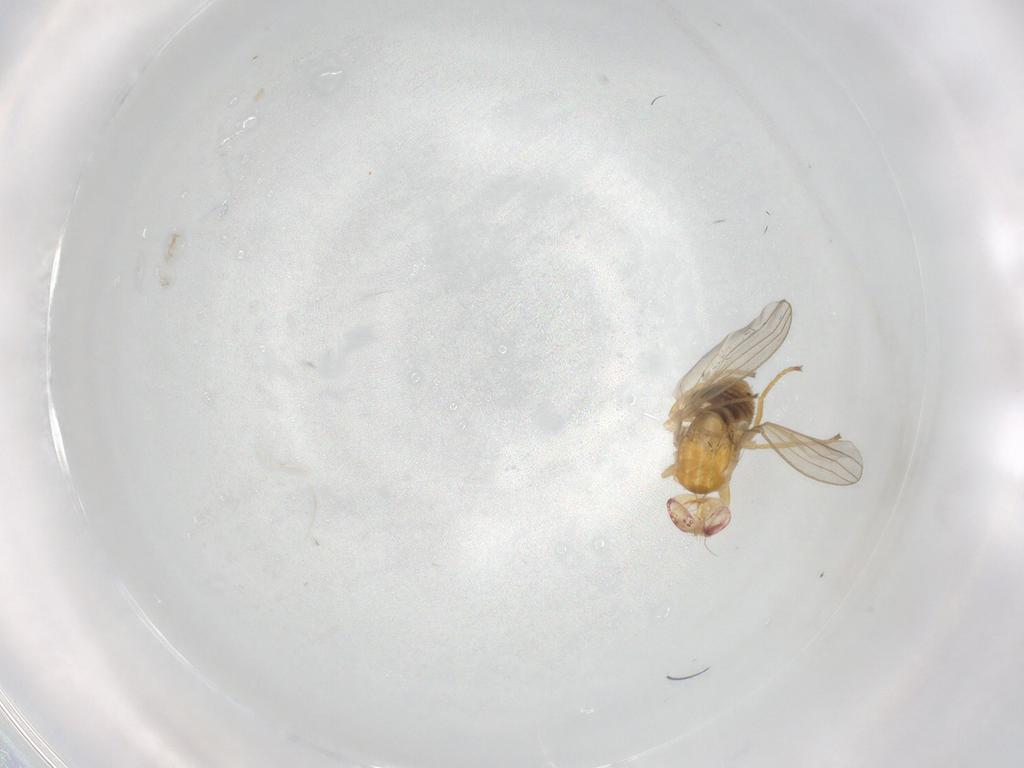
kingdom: Animalia
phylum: Arthropoda
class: Insecta
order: Diptera
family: Chyromyidae
